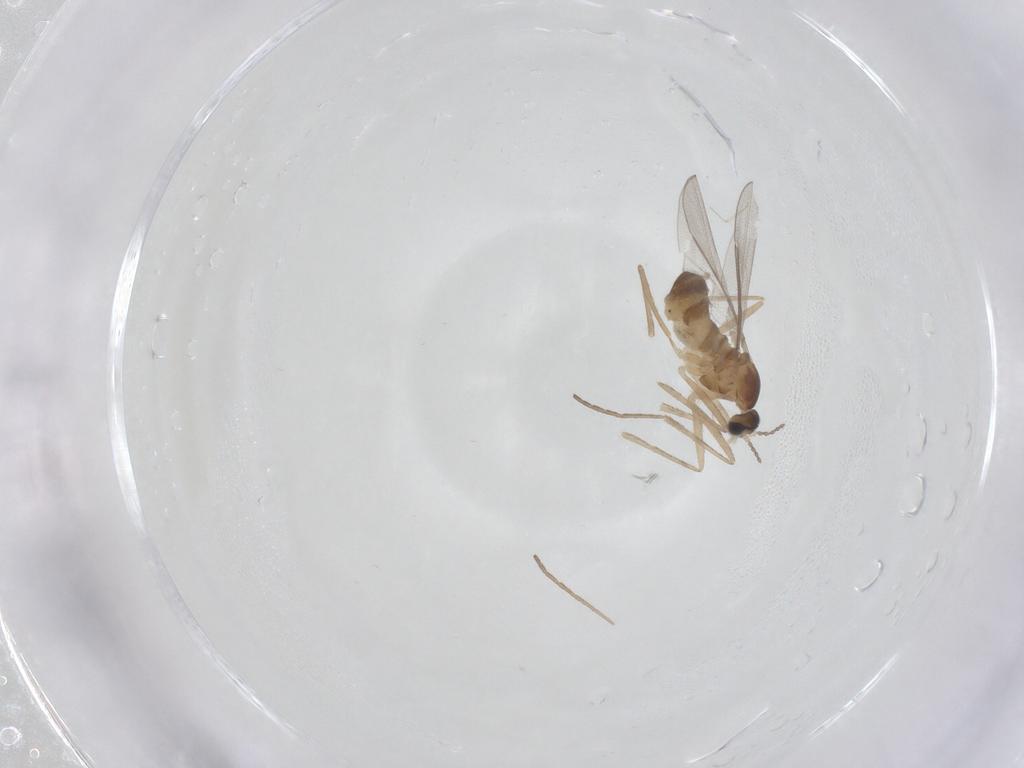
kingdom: Animalia
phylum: Arthropoda
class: Insecta
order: Diptera
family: Cecidomyiidae
